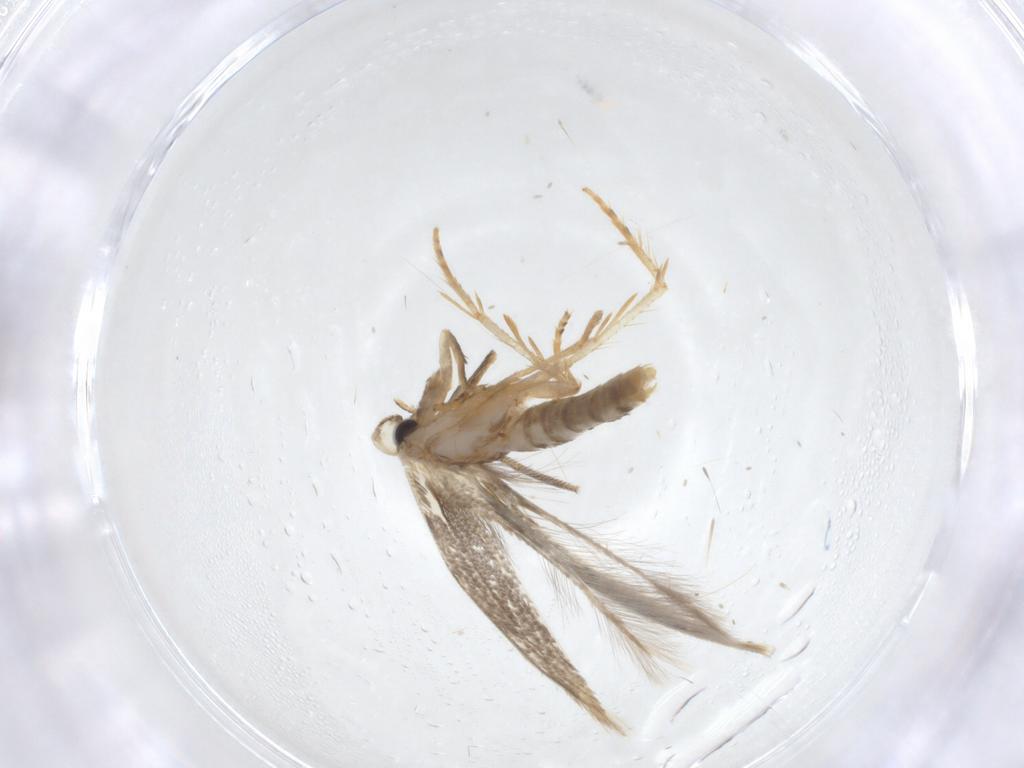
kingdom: Animalia
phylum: Arthropoda
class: Insecta
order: Lepidoptera
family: Opostegidae
